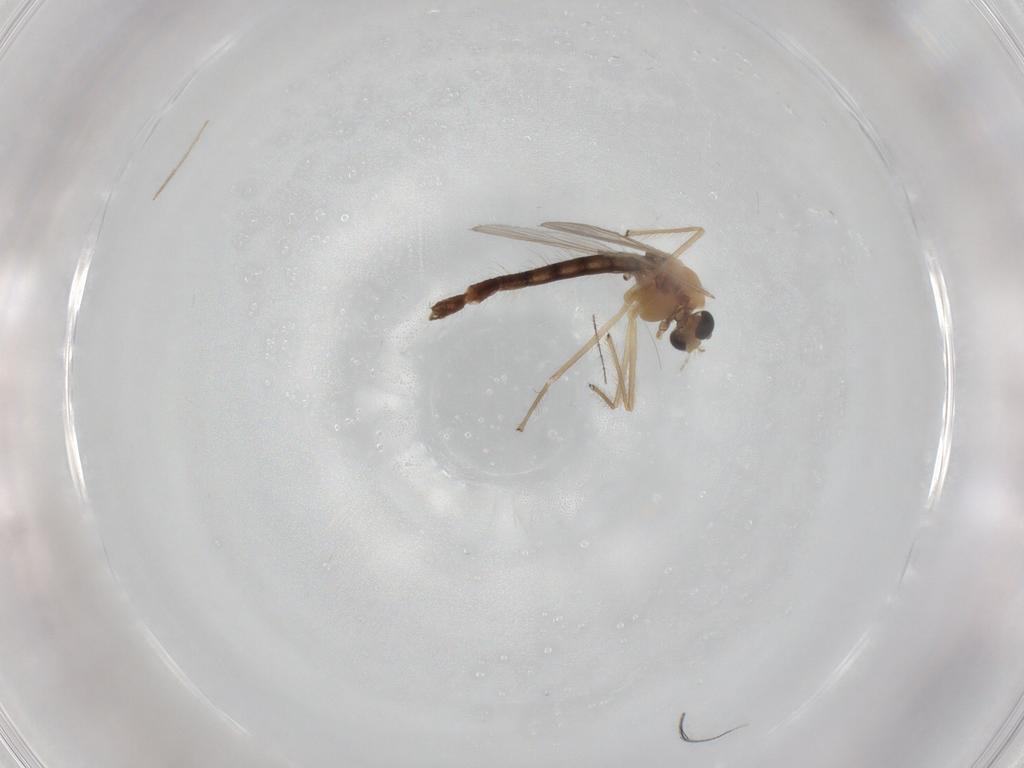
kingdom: Animalia
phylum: Arthropoda
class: Insecta
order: Diptera
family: Chironomidae
